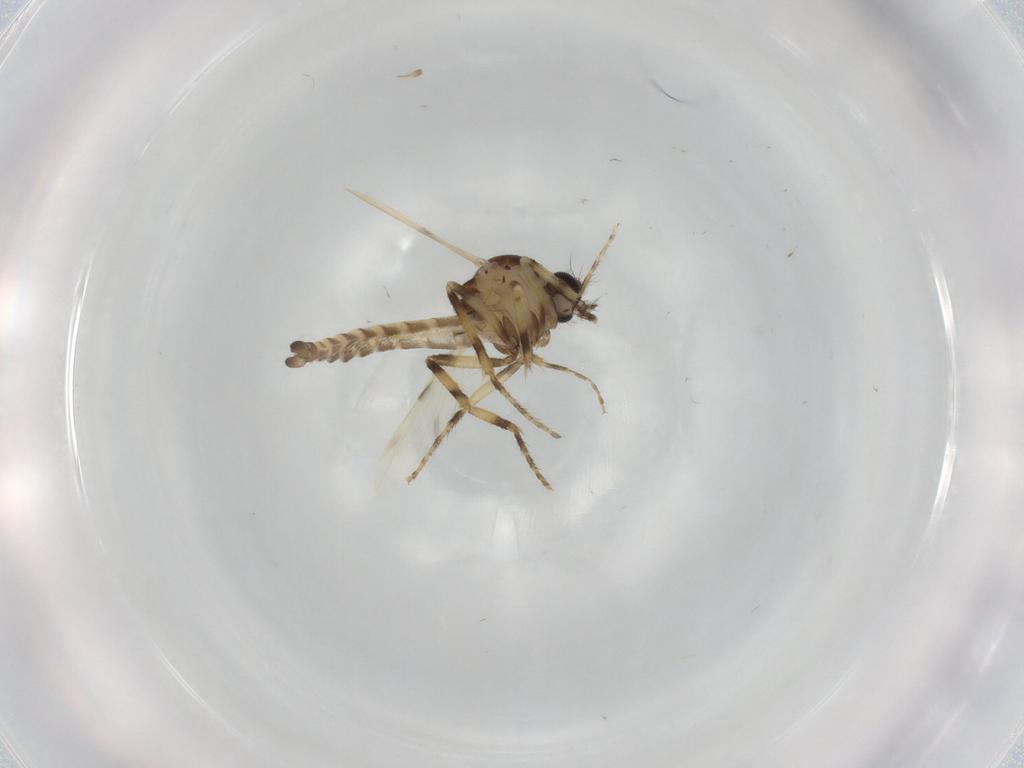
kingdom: Animalia
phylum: Arthropoda
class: Insecta
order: Diptera
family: Ceratopogonidae
